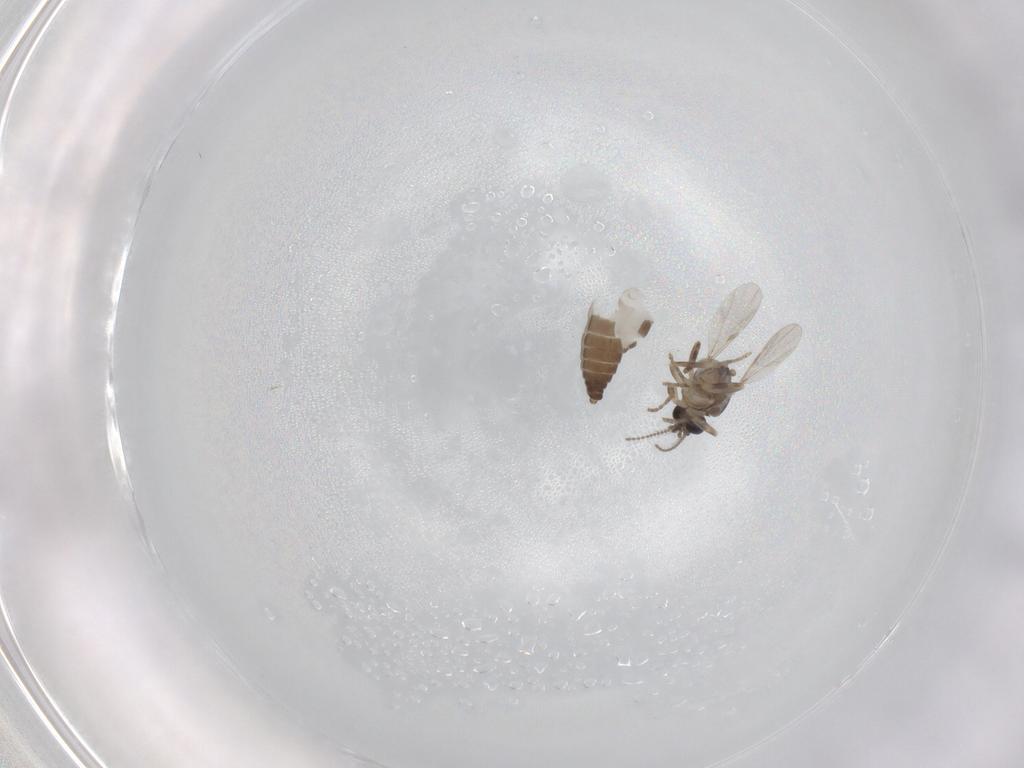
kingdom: Animalia
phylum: Arthropoda
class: Insecta
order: Diptera
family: Ceratopogonidae
